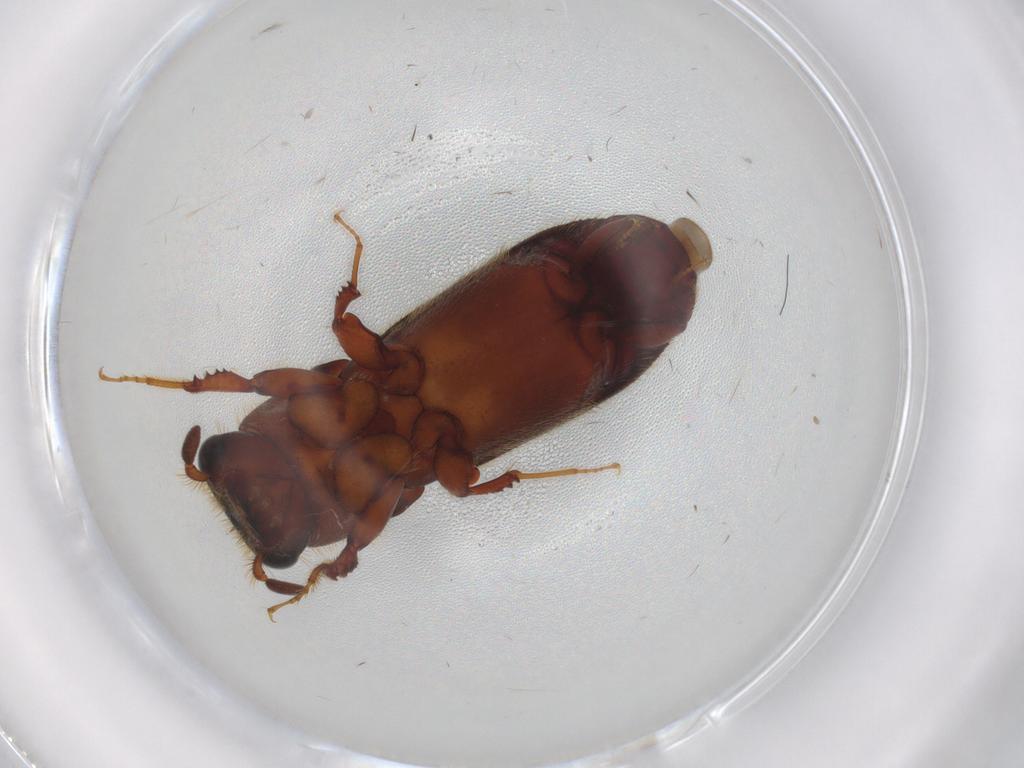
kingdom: Animalia
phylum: Arthropoda
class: Insecta
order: Coleoptera
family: Curculionidae
